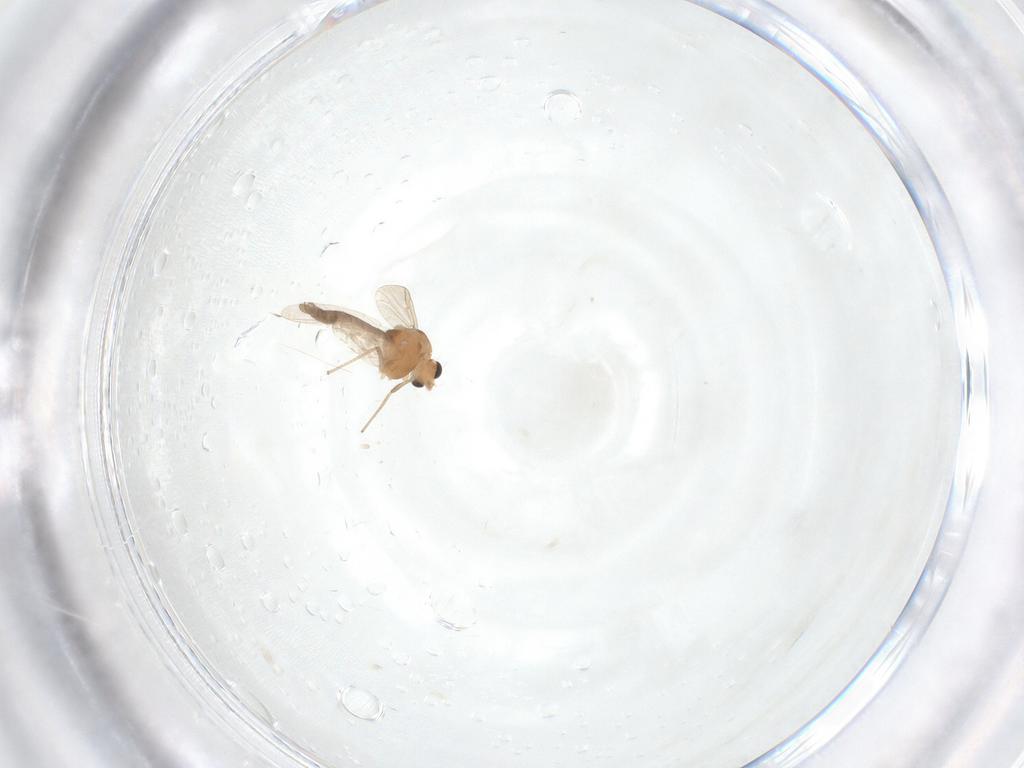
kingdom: Animalia
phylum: Arthropoda
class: Insecta
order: Diptera
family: Chironomidae
